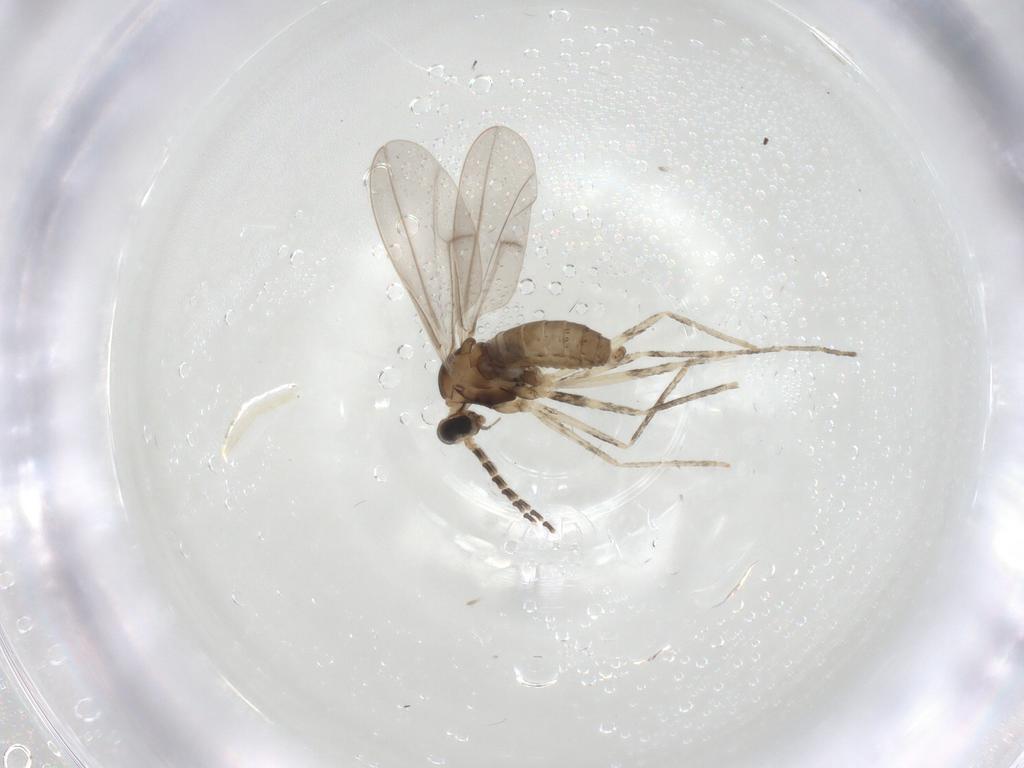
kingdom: Animalia
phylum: Arthropoda
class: Insecta
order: Diptera
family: Cecidomyiidae
